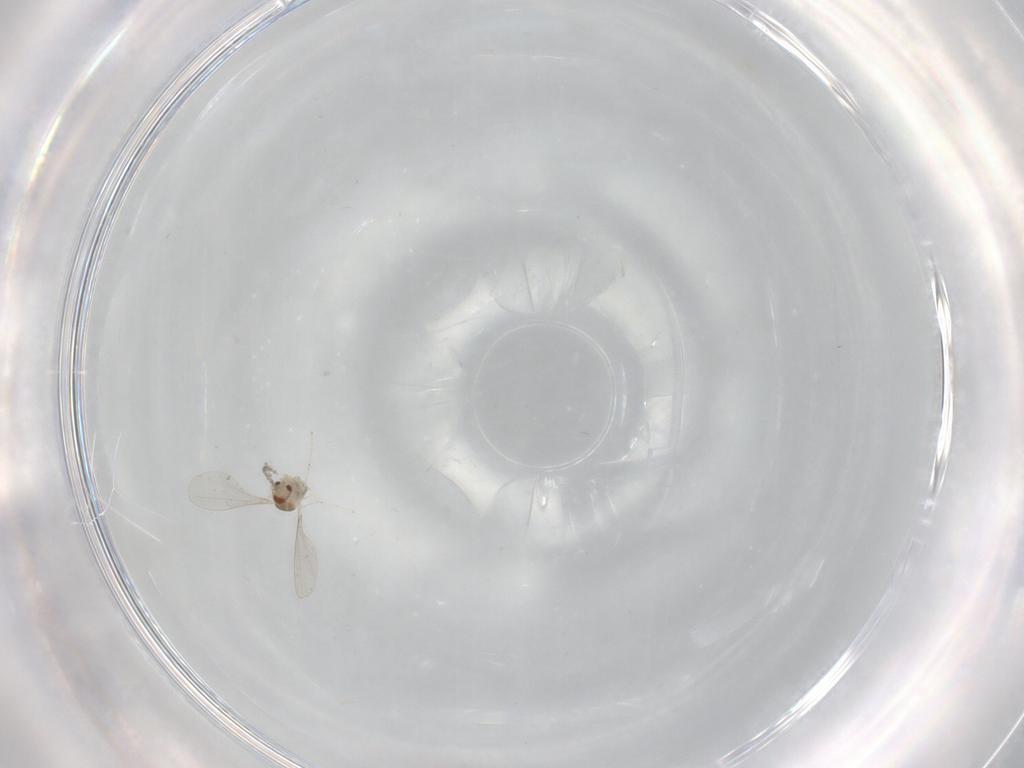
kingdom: Animalia
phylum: Arthropoda
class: Insecta
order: Diptera
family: Cecidomyiidae
